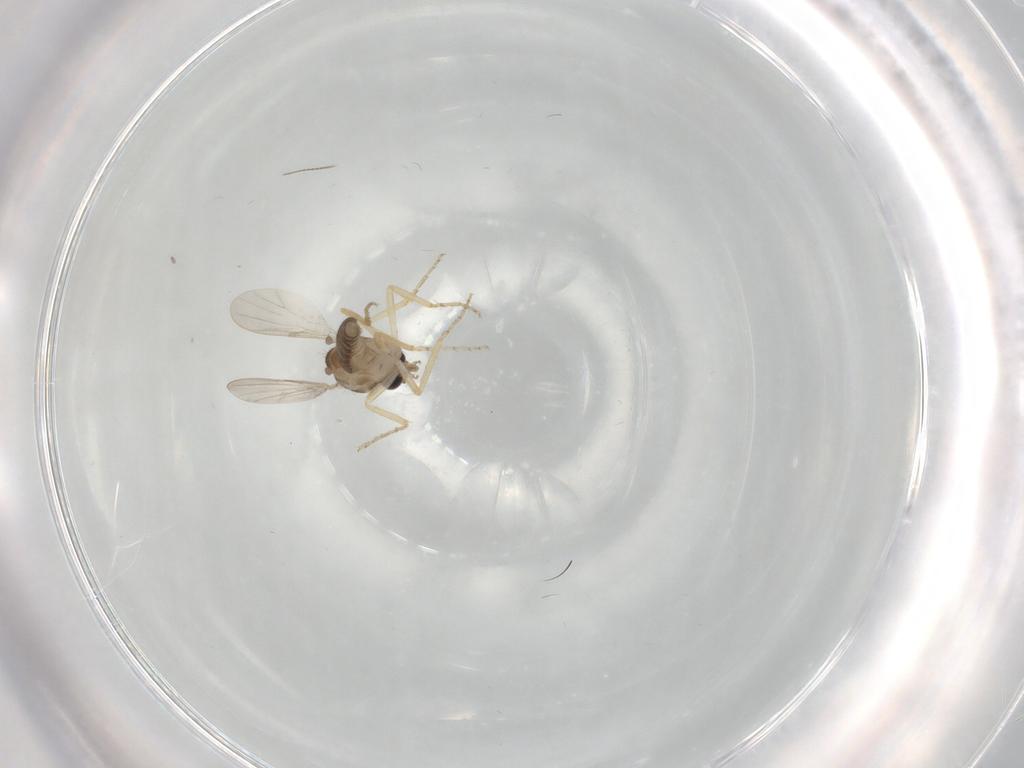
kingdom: Animalia
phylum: Arthropoda
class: Insecta
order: Diptera
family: Ceratopogonidae
